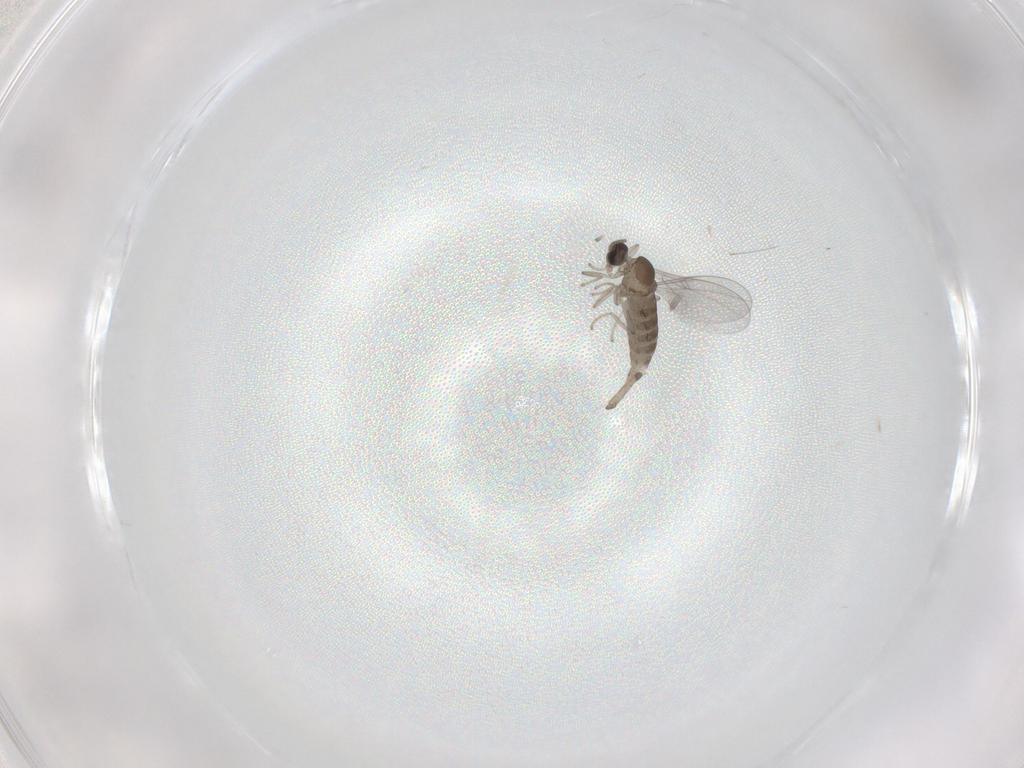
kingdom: Animalia
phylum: Arthropoda
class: Insecta
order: Diptera
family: Cecidomyiidae
